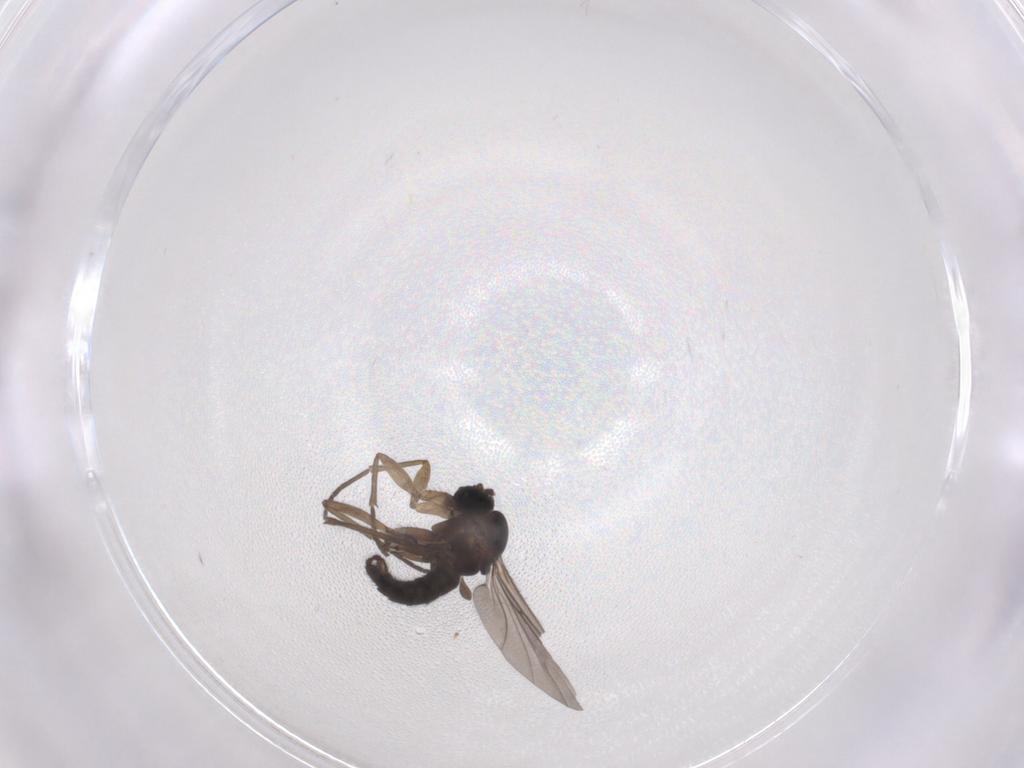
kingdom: Animalia
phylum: Arthropoda
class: Insecta
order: Diptera
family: Sciaridae
